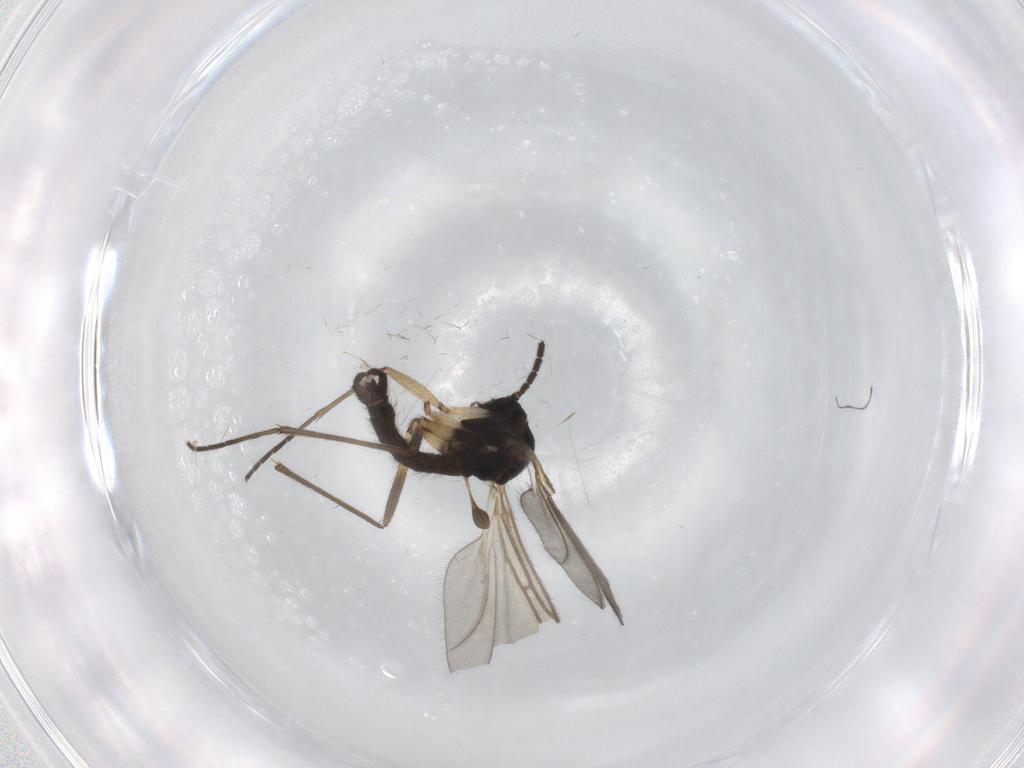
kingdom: Animalia
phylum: Arthropoda
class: Insecta
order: Diptera
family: Sciaridae
